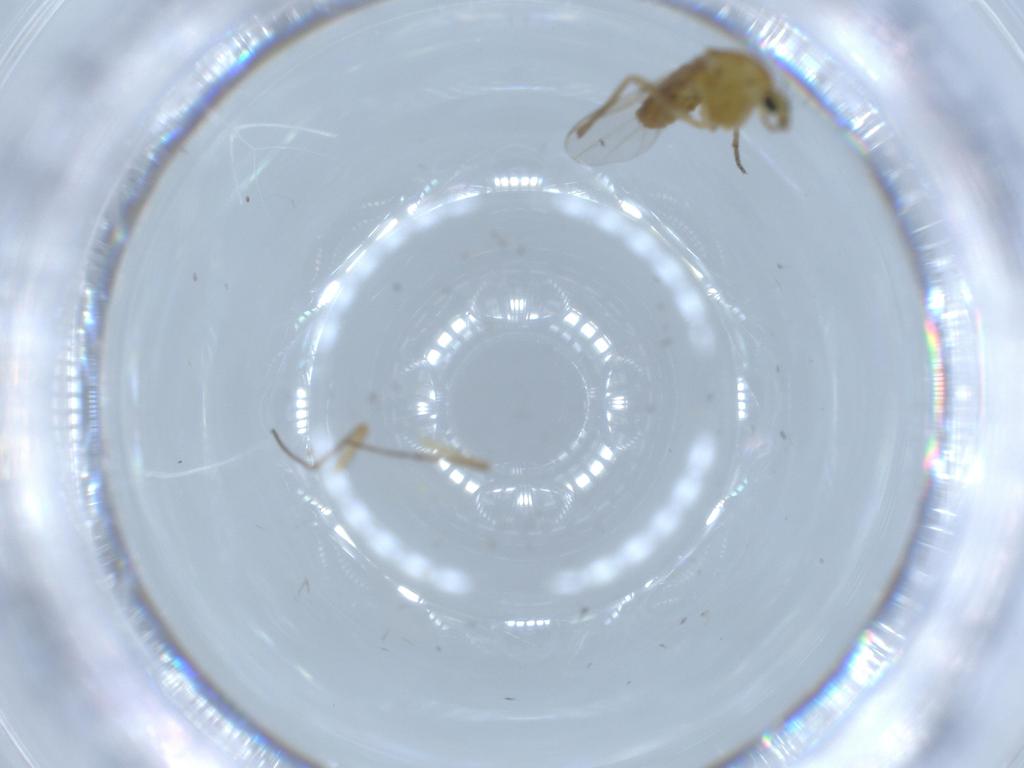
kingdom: Animalia
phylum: Arthropoda
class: Insecta
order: Diptera
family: Chironomidae
